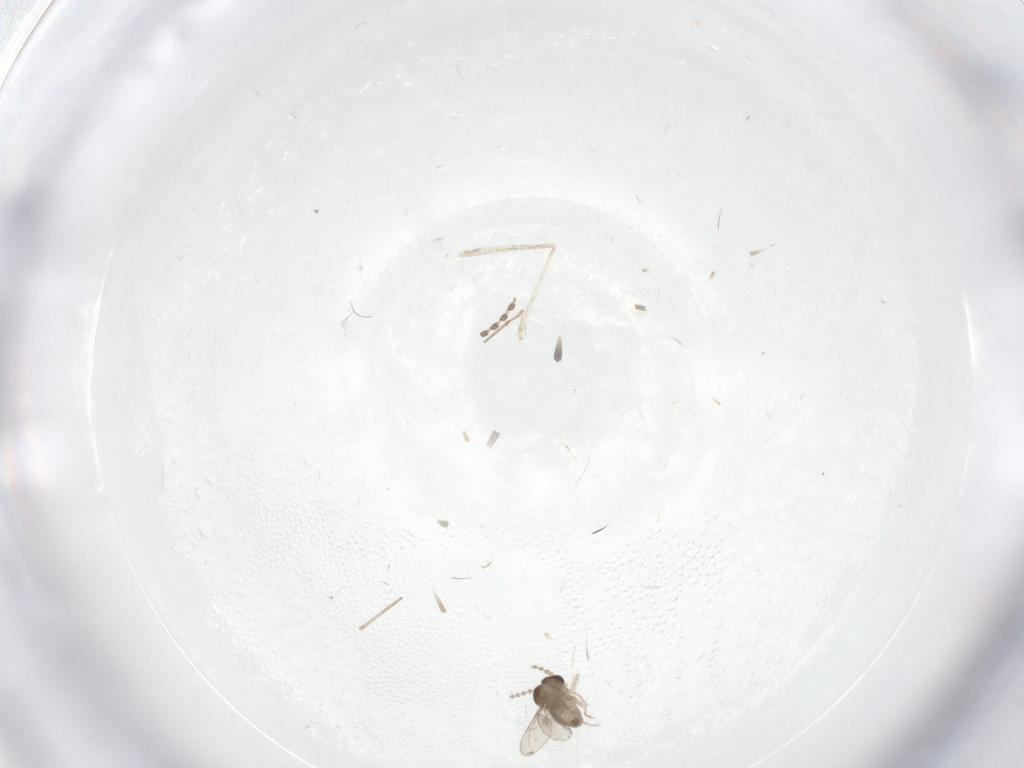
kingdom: Animalia
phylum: Arthropoda
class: Insecta
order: Diptera
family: Cecidomyiidae
